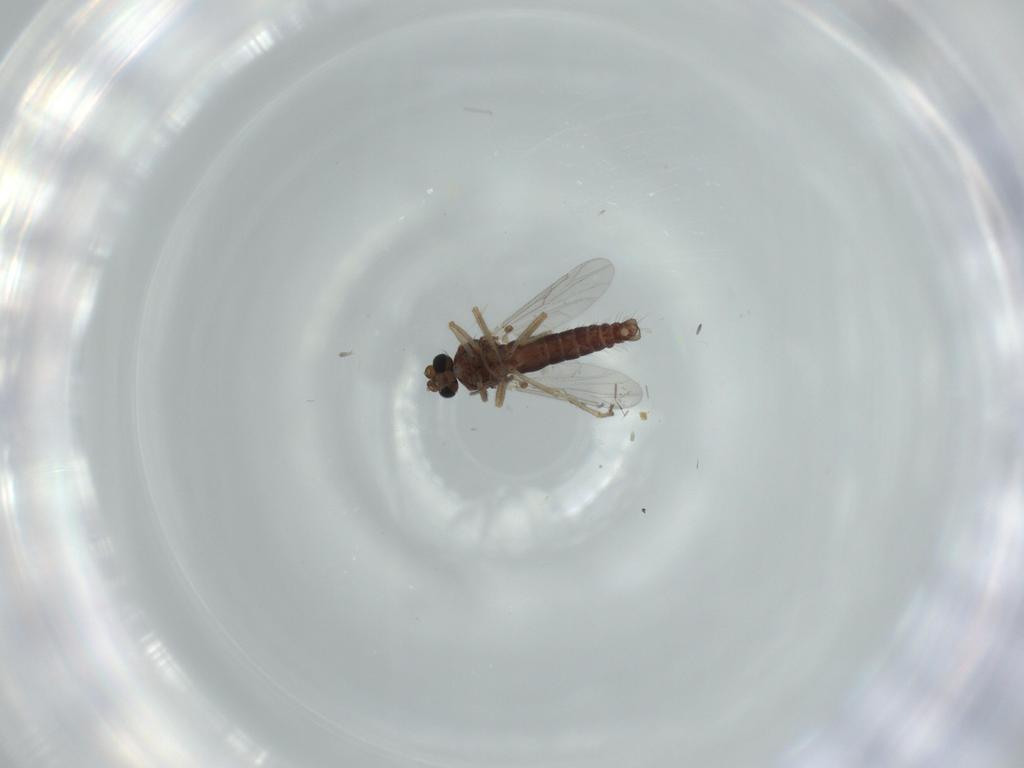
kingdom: Animalia
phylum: Arthropoda
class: Insecta
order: Diptera
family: Ceratopogonidae
